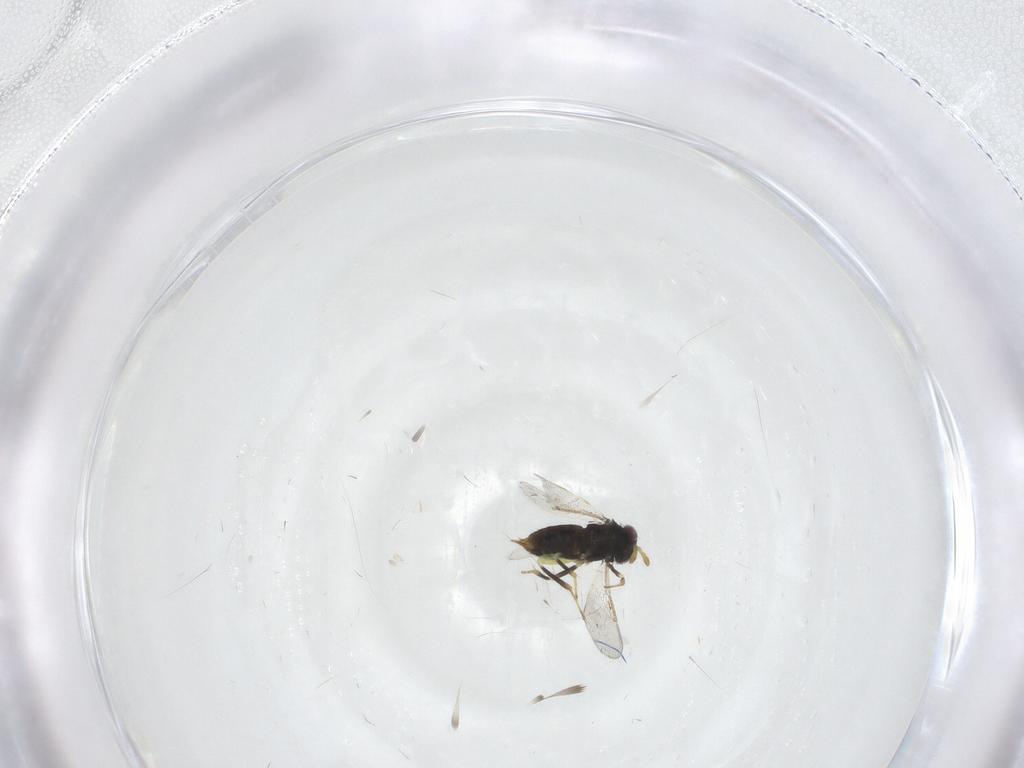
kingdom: Animalia
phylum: Arthropoda
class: Insecta
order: Hymenoptera
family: Aphelinidae
